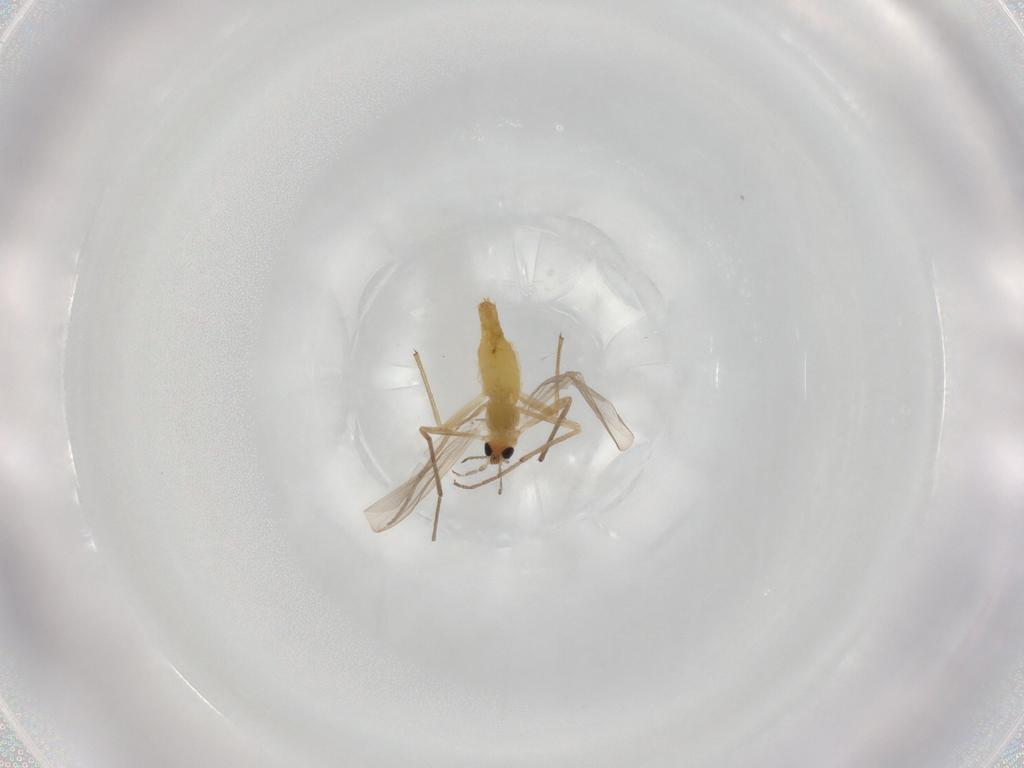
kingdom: Animalia
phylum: Arthropoda
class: Insecta
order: Diptera
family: Chironomidae
